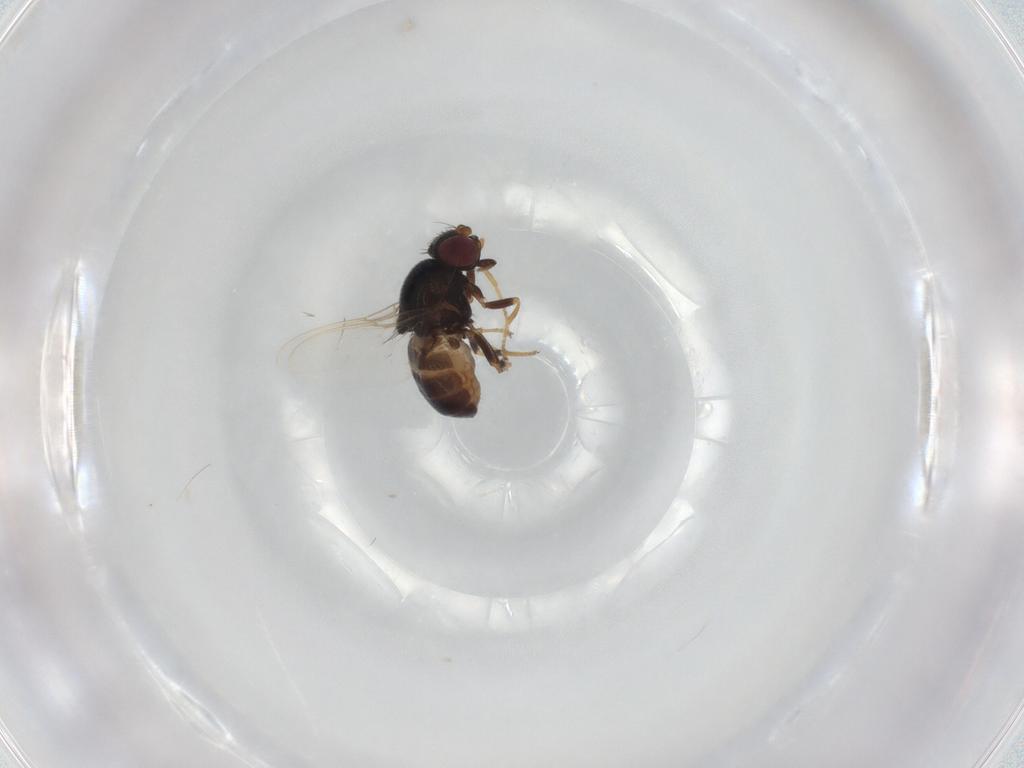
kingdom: Animalia
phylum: Arthropoda
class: Insecta
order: Diptera
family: Chloropidae
